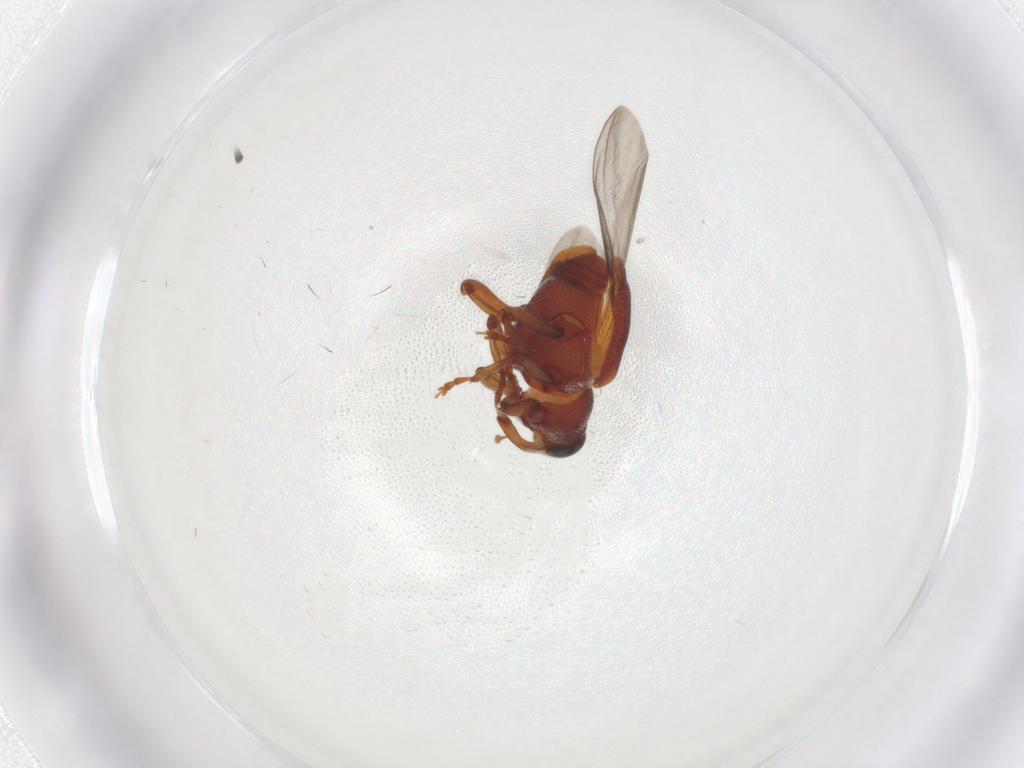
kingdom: Animalia
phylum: Arthropoda
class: Insecta
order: Coleoptera
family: Curculionidae
